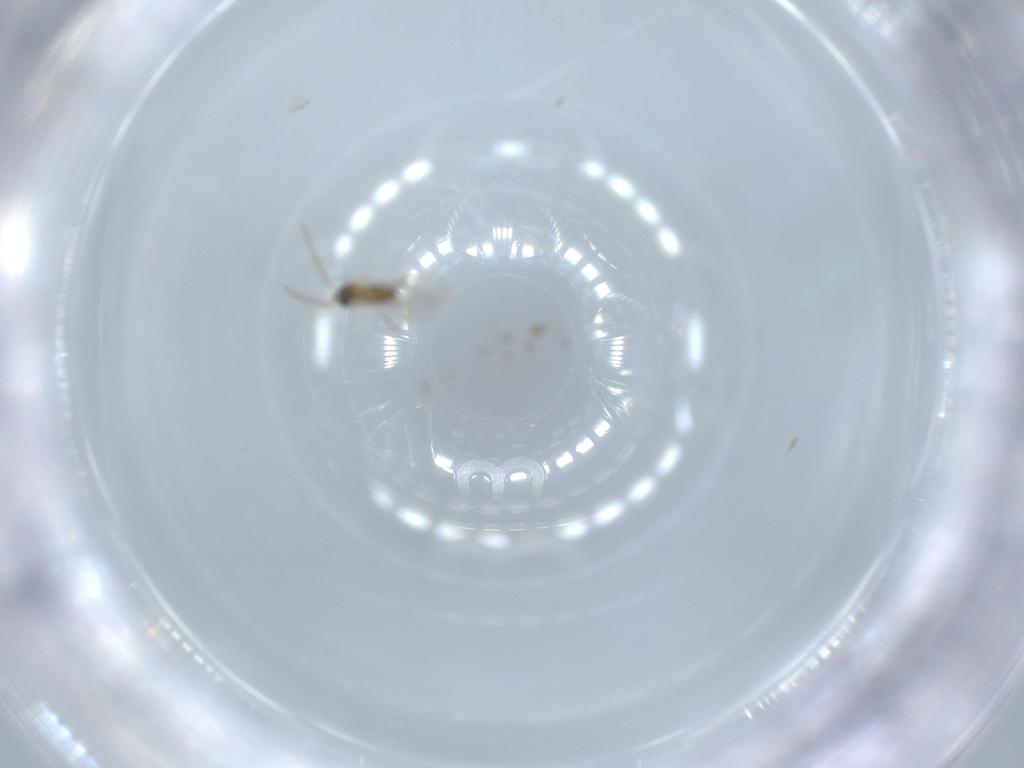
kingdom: Animalia
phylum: Arthropoda
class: Insecta
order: Diptera
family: Cecidomyiidae
